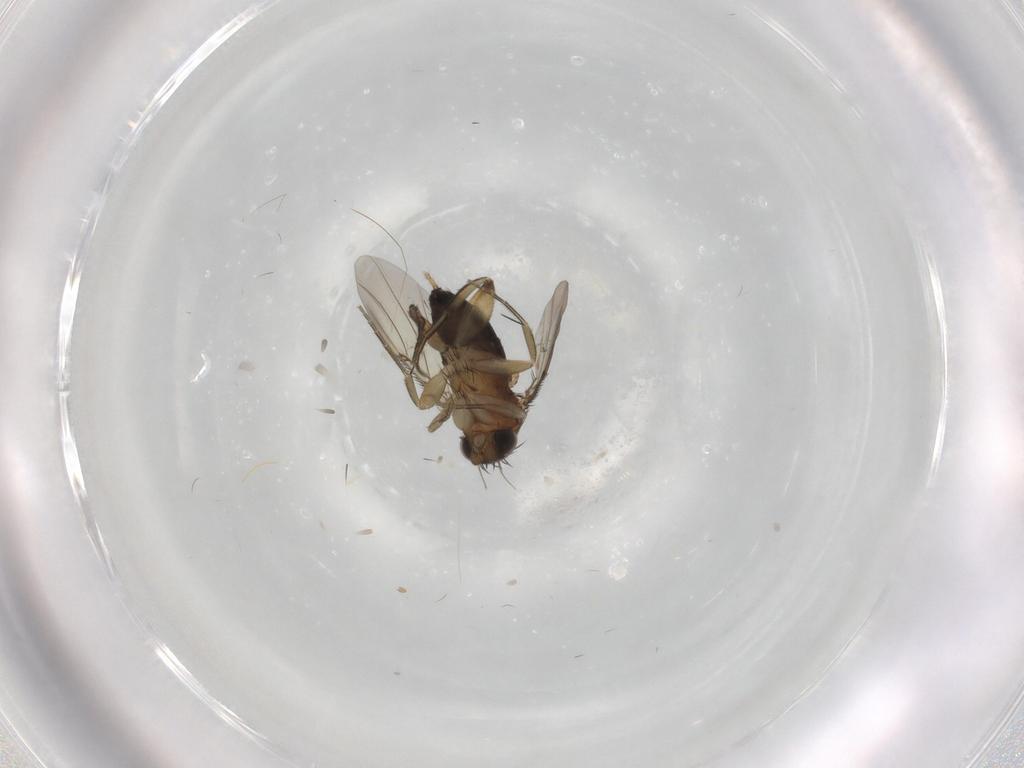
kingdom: Animalia
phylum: Arthropoda
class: Insecta
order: Diptera
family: Phoridae
